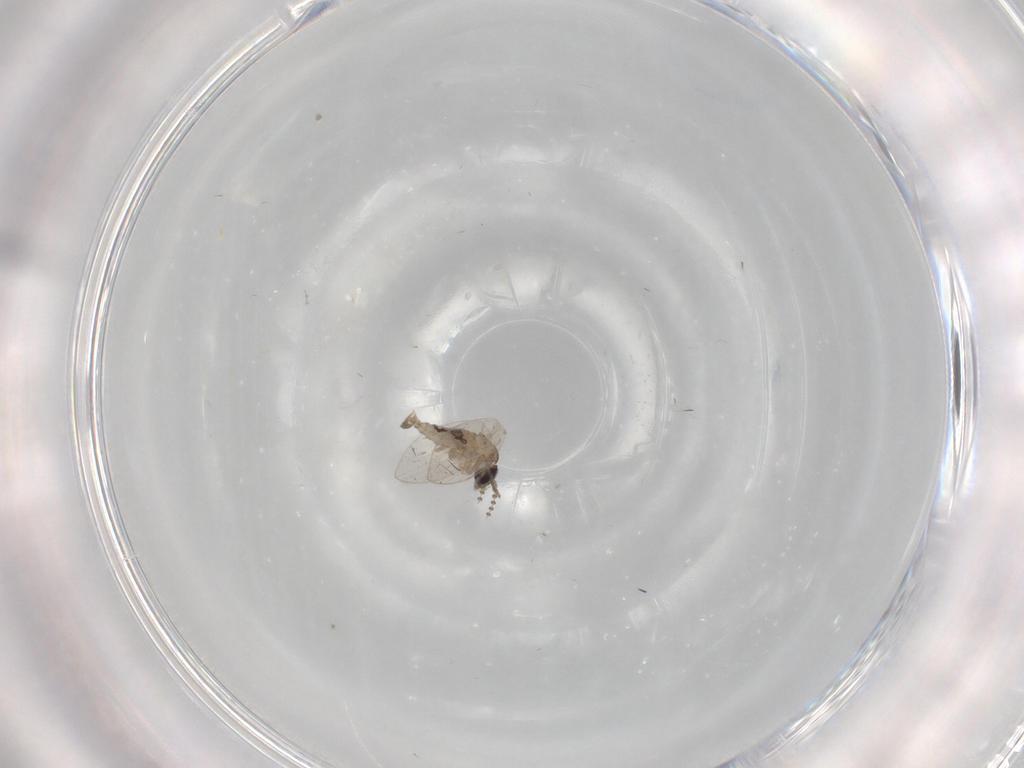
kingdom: Animalia
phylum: Arthropoda
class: Insecta
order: Diptera
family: Psychodidae
